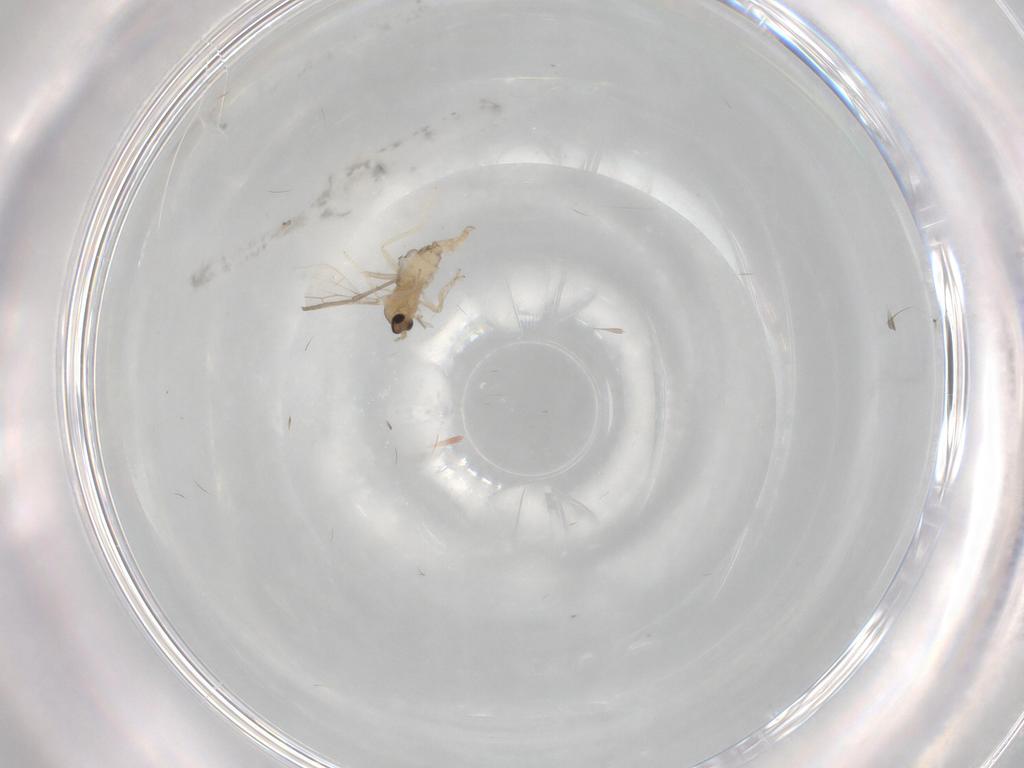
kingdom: Animalia
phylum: Arthropoda
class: Insecta
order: Diptera
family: Cecidomyiidae
